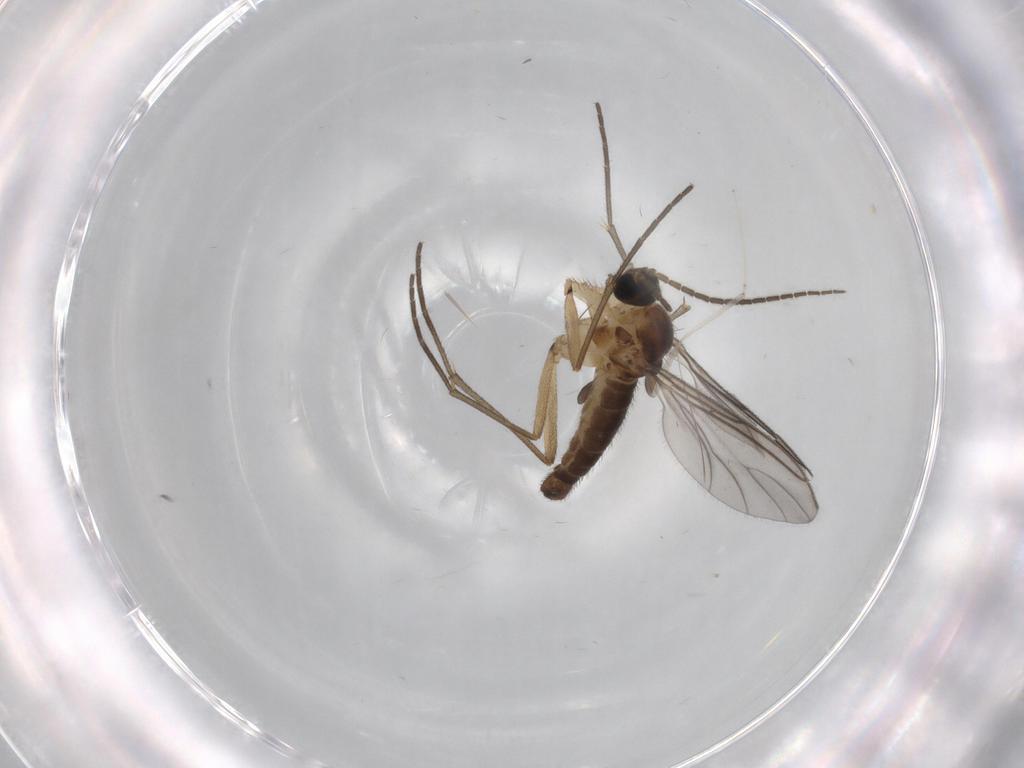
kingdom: Animalia
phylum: Arthropoda
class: Insecta
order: Diptera
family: Sciaridae
